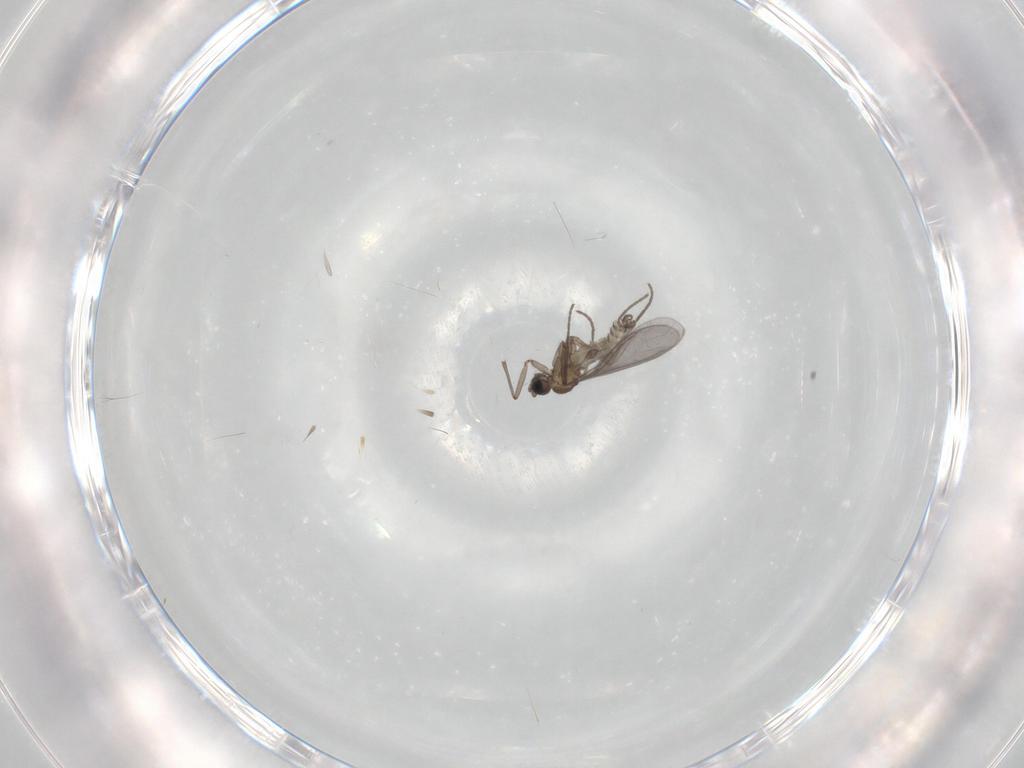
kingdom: Animalia
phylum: Arthropoda
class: Insecta
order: Diptera
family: Sciaridae
